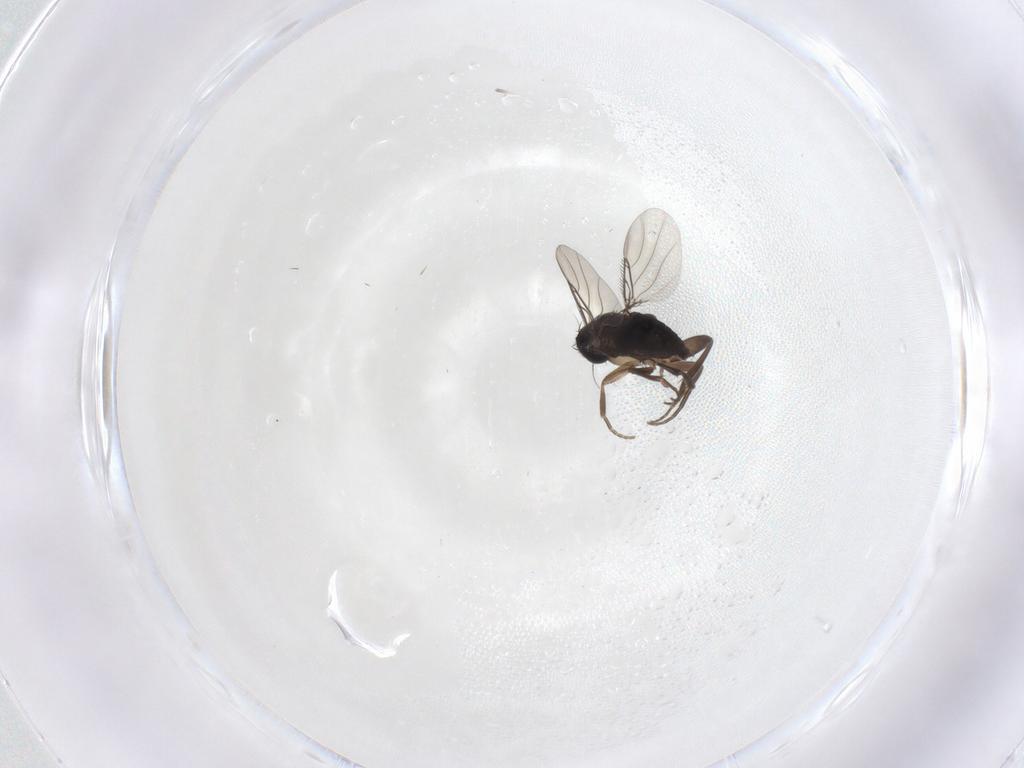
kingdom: Animalia
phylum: Arthropoda
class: Insecta
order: Diptera
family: Phoridae
